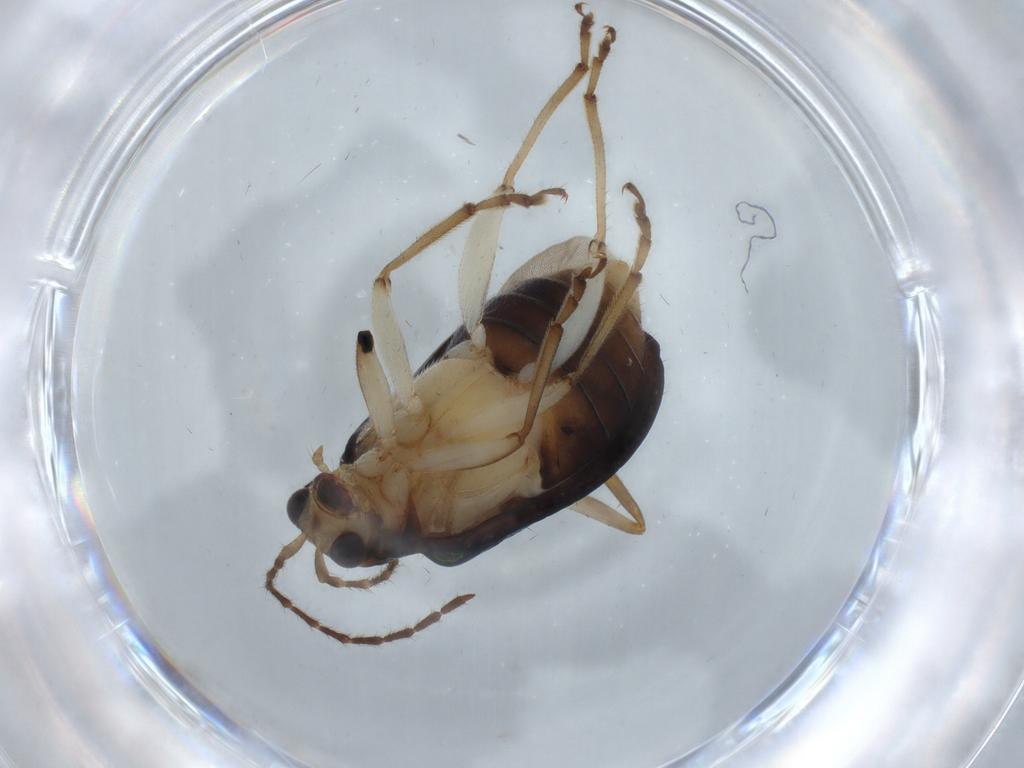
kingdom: Animalia
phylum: Arthropoda
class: Insecta
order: Coleoptera
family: Chrysomelidae
